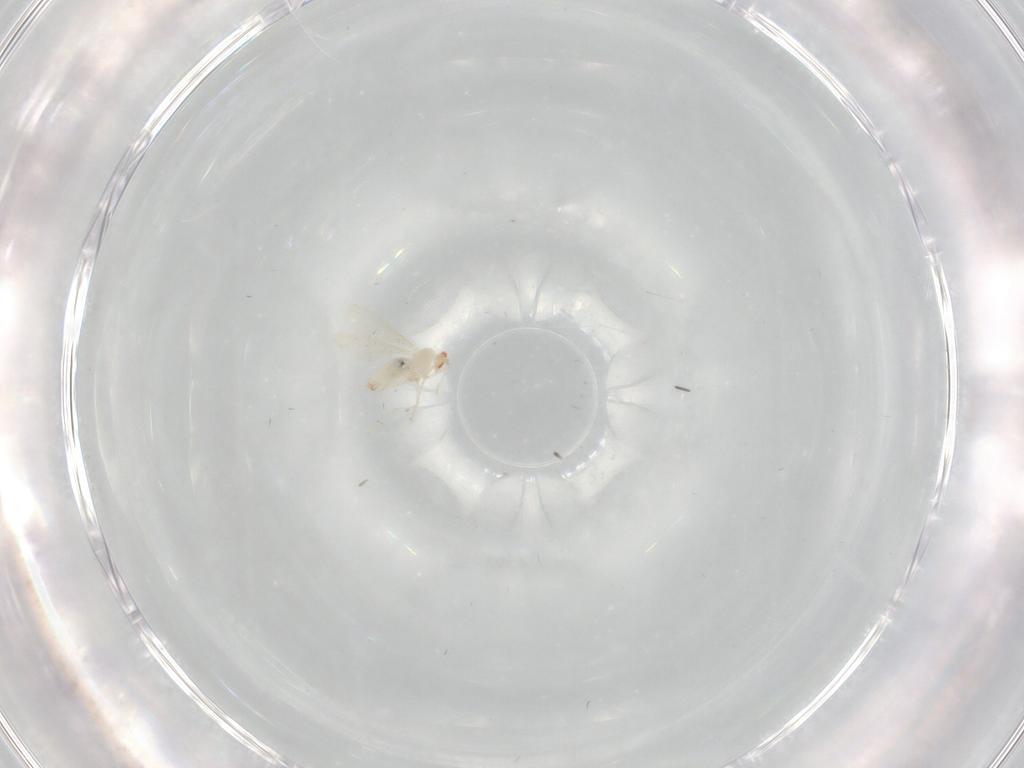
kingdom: Animalia
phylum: Arthropoda
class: Insecta
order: Diptera
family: Cecidomyiidae
